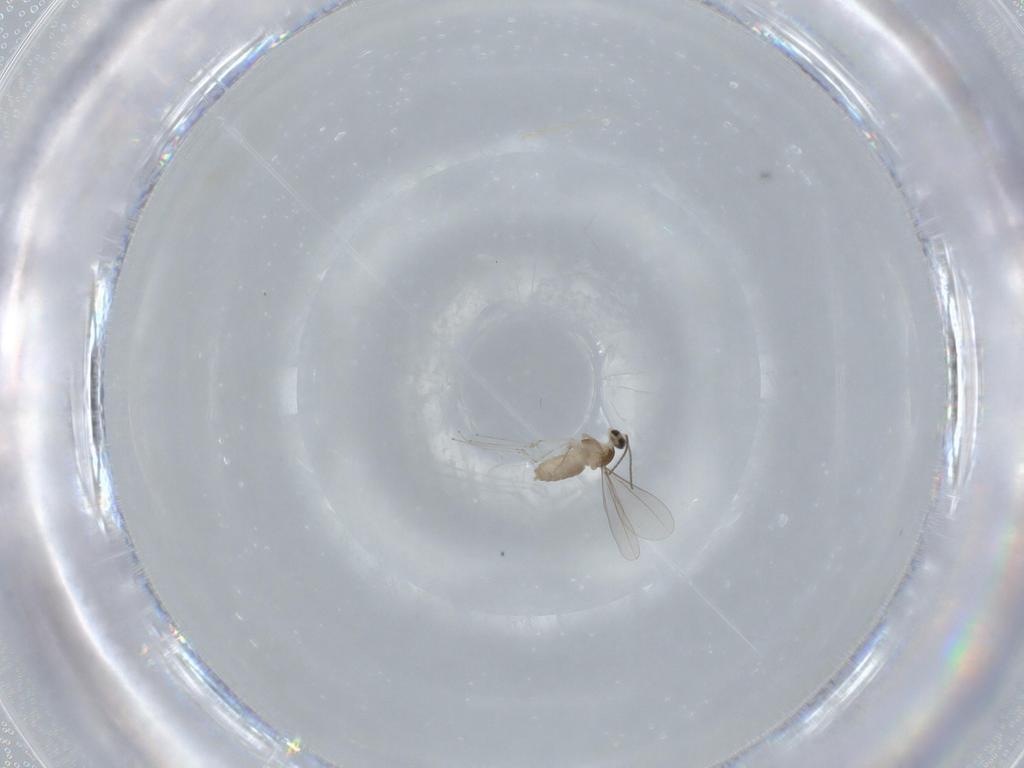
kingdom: Animalia
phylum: Arthropoda
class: Insecta
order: Diptera
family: Cecidomyiidae
